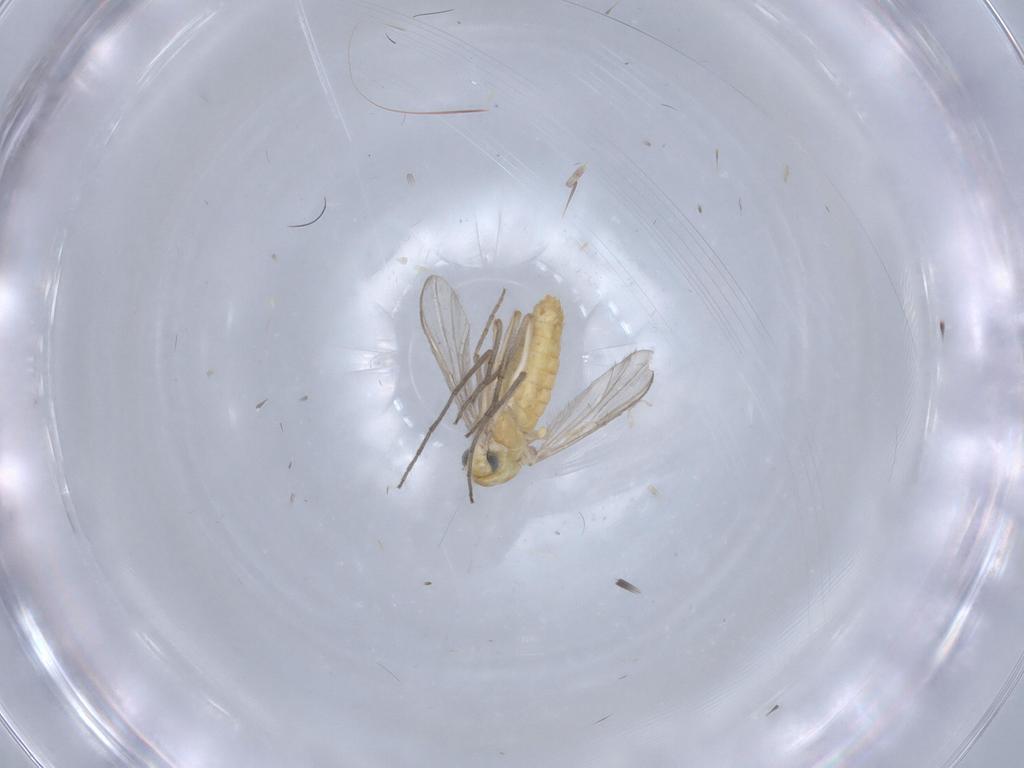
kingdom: Animalia
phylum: Arthropoda
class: Insecta
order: Diptera
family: Chironomidae
